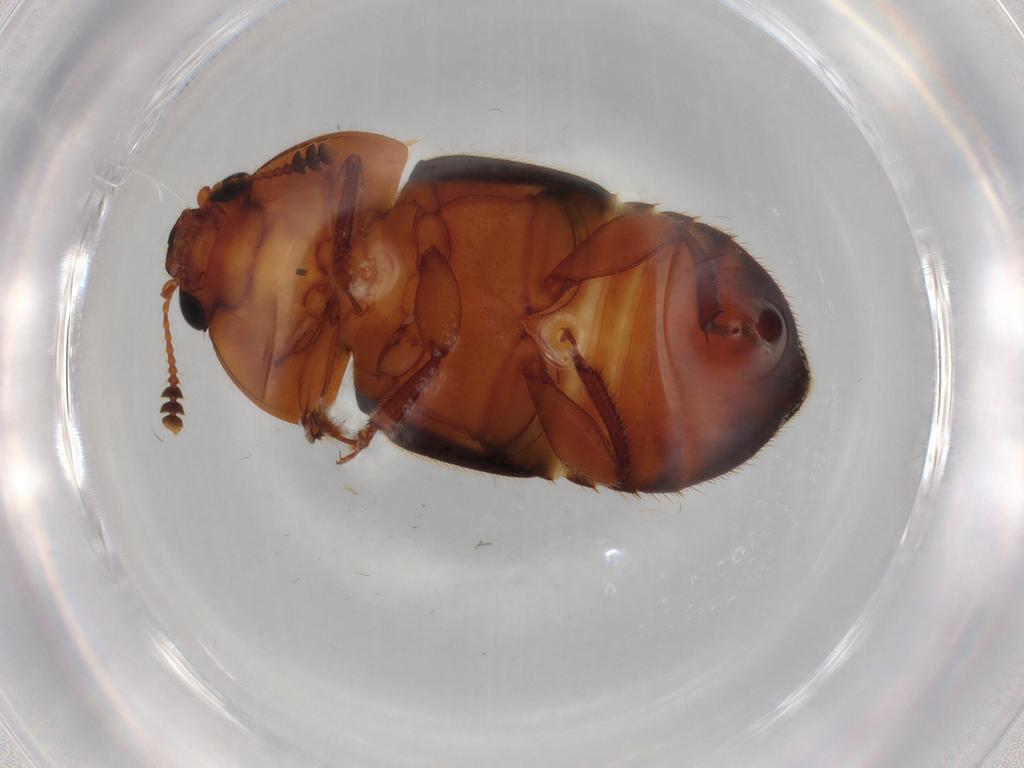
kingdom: Animalia
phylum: Arthropoda
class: Insecta
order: Coleoptera
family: Nitidulidae
